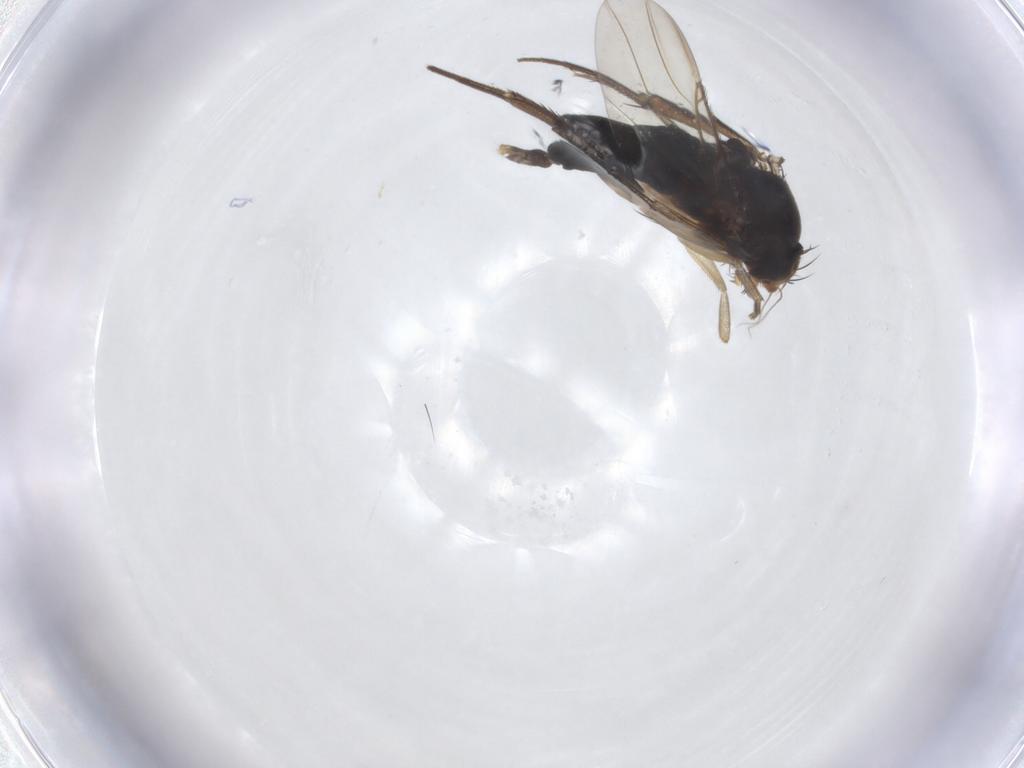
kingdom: Animalia
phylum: Arthropoda
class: Insecta
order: Diptera
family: Phoridae
